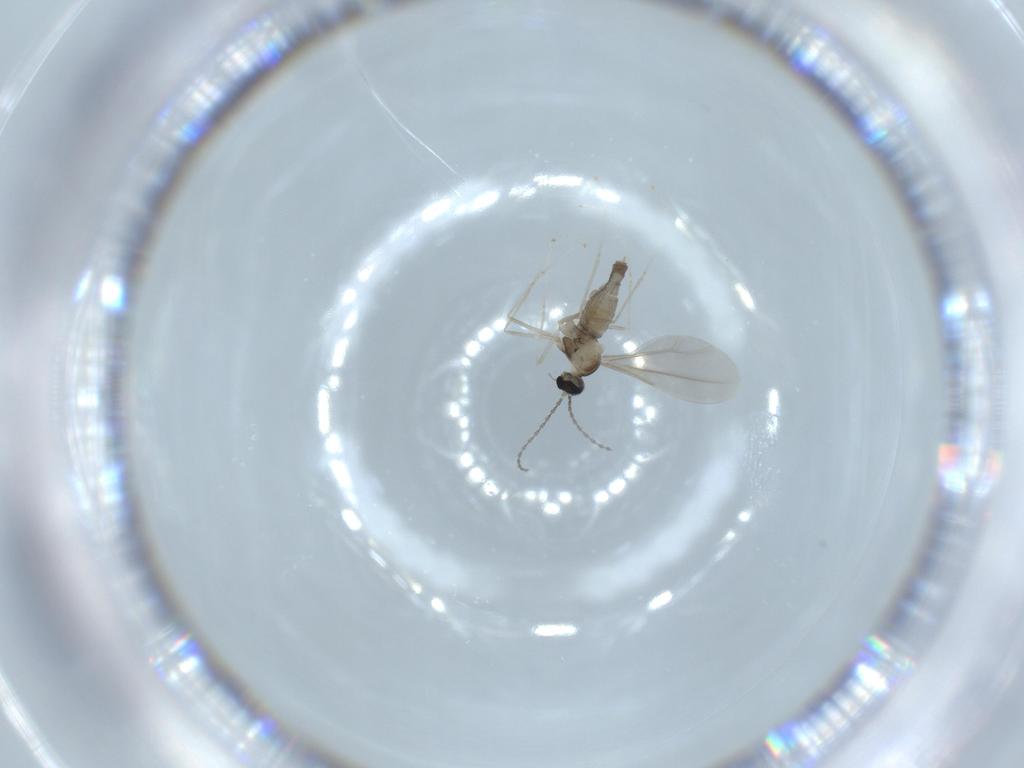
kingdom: Animalia
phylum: Arthropoda
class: Insecta
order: Diptera
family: Cecidomyiidae
